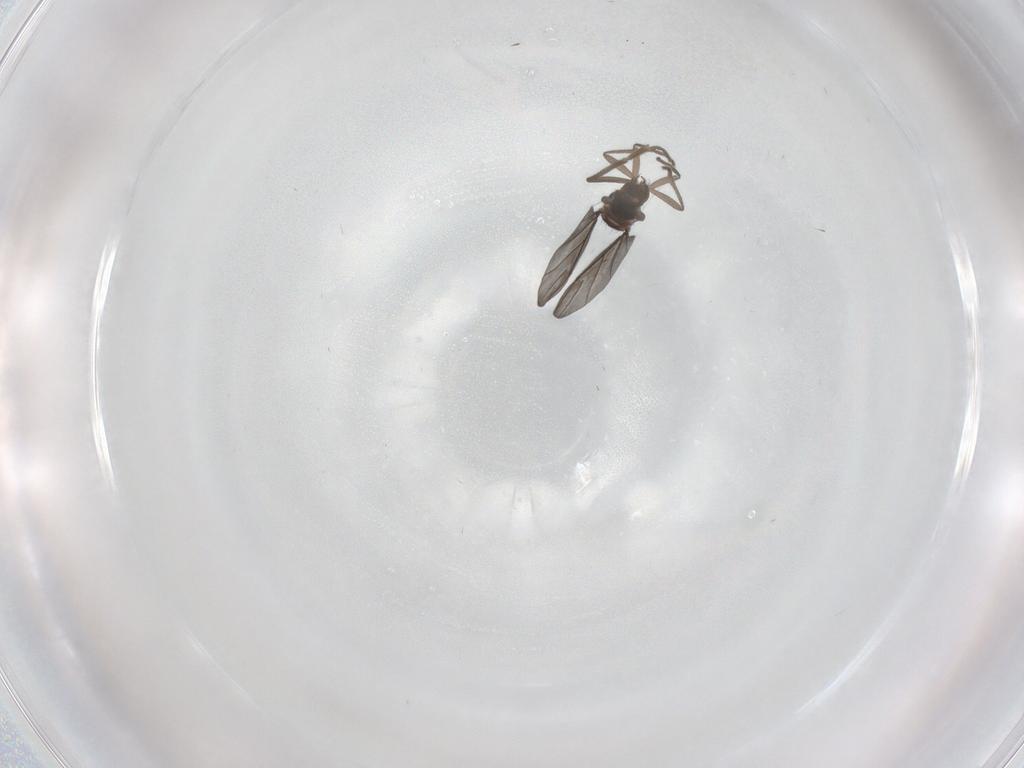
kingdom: Animalia
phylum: Arthropoda
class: Insecta
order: Diptera
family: Phoridae
